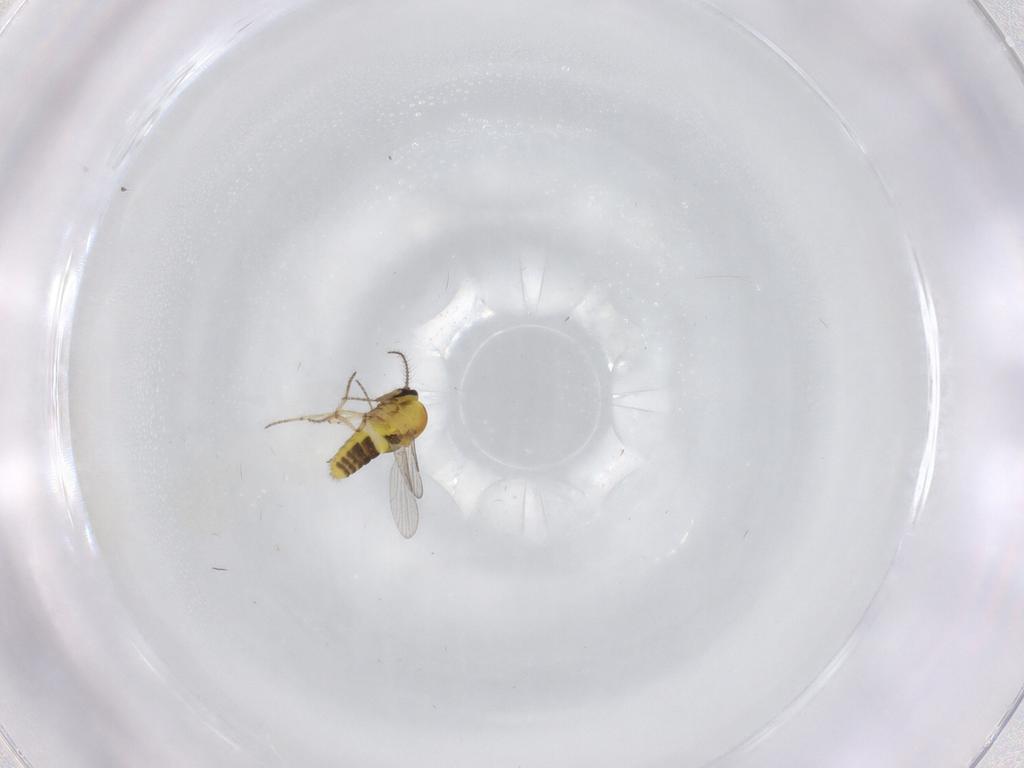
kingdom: Animalia
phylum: Arthropoda
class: Insecta
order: Diptera
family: Ceratopogonidae
